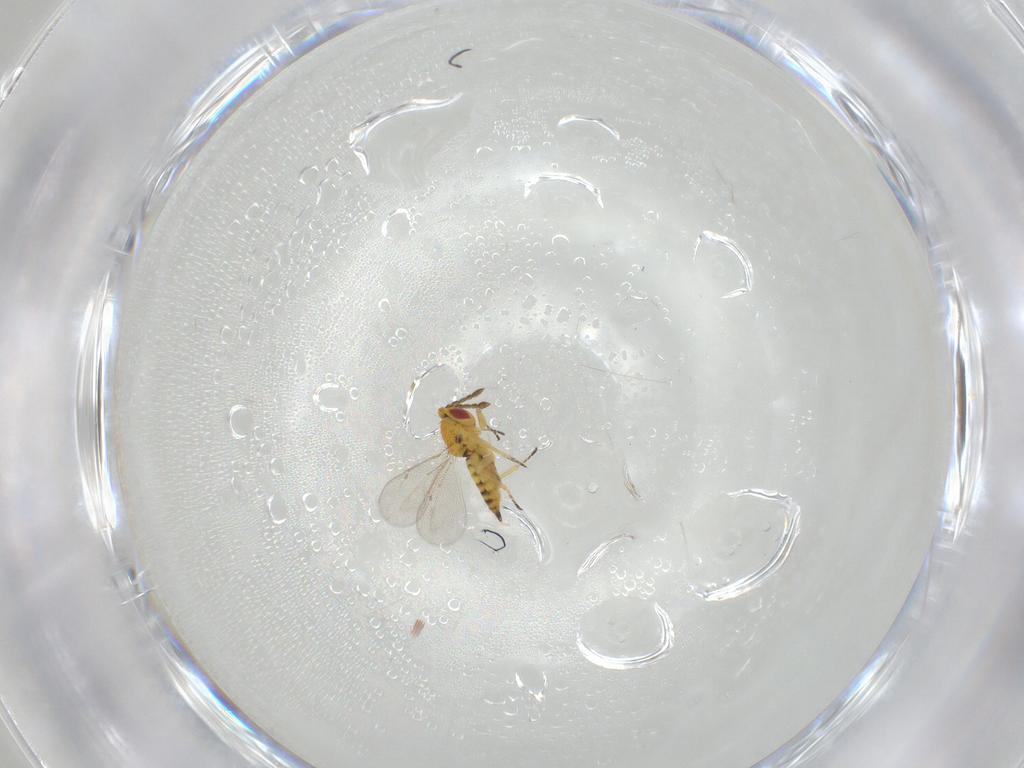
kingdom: Animalia
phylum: Arthropoda
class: Insecta
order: Hymenoptera
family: Eulophidae
